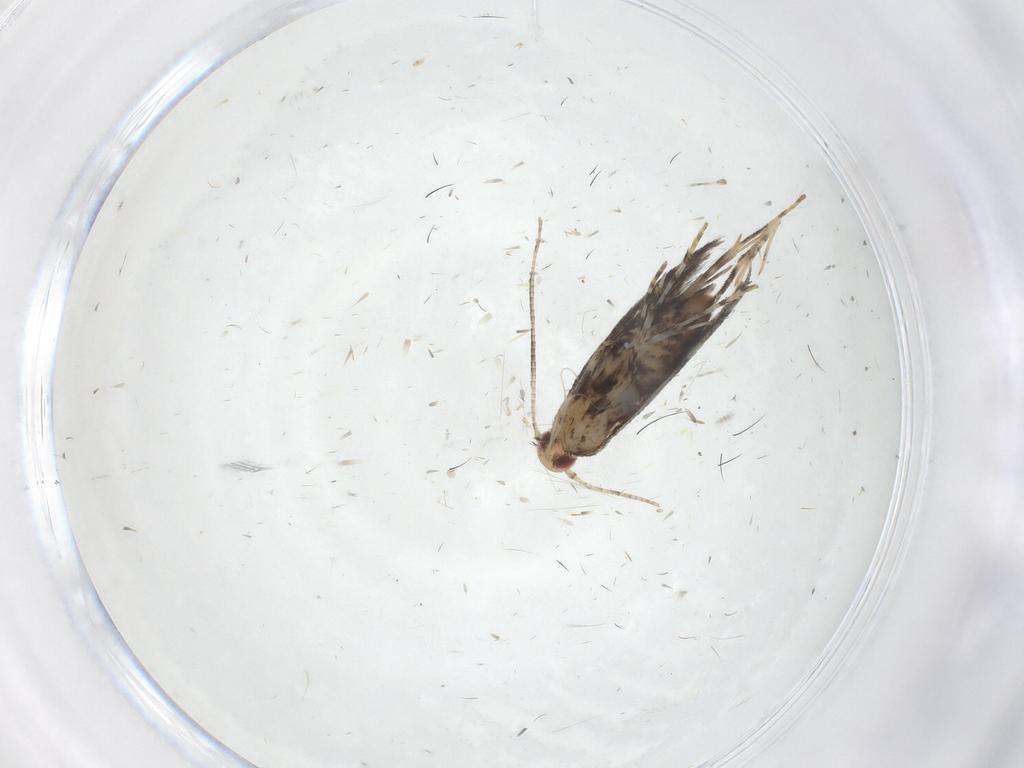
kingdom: Animalia
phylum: Arthropoda
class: Insecta
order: Lepidoptera
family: Gracillariidae
